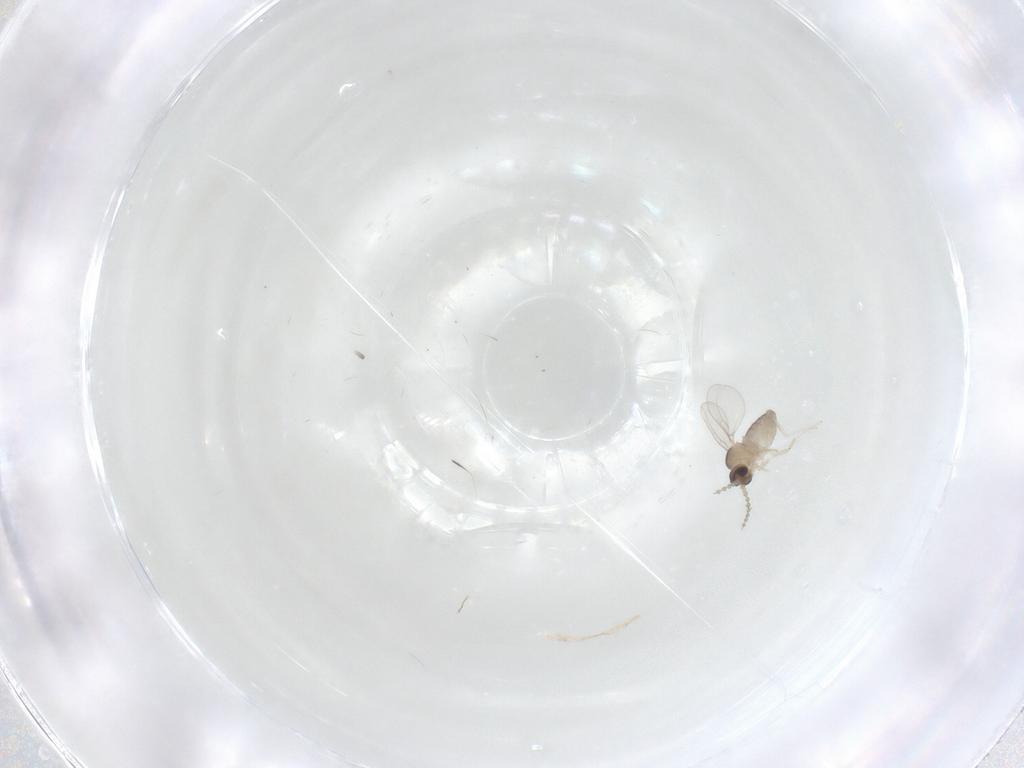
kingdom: Animalia
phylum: Arthropoda
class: Insecta
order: Diptera
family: Cecidomyiidae
